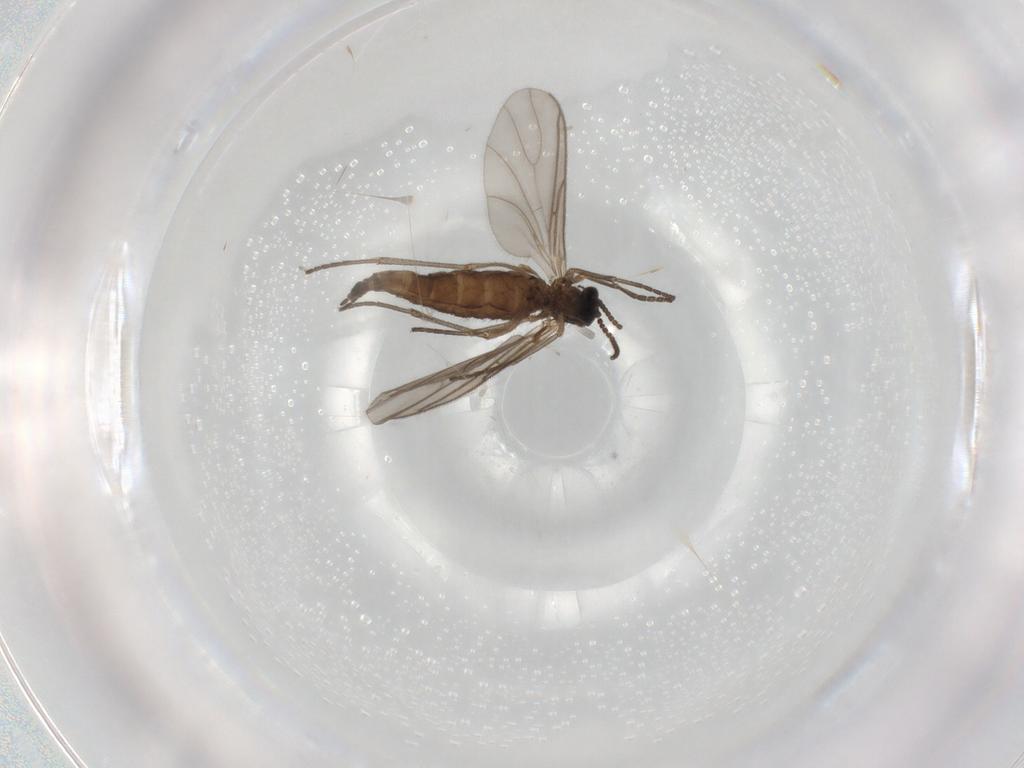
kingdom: Animalia
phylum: Arthropoda
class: Insecta
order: Diptera
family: Sciaridae
